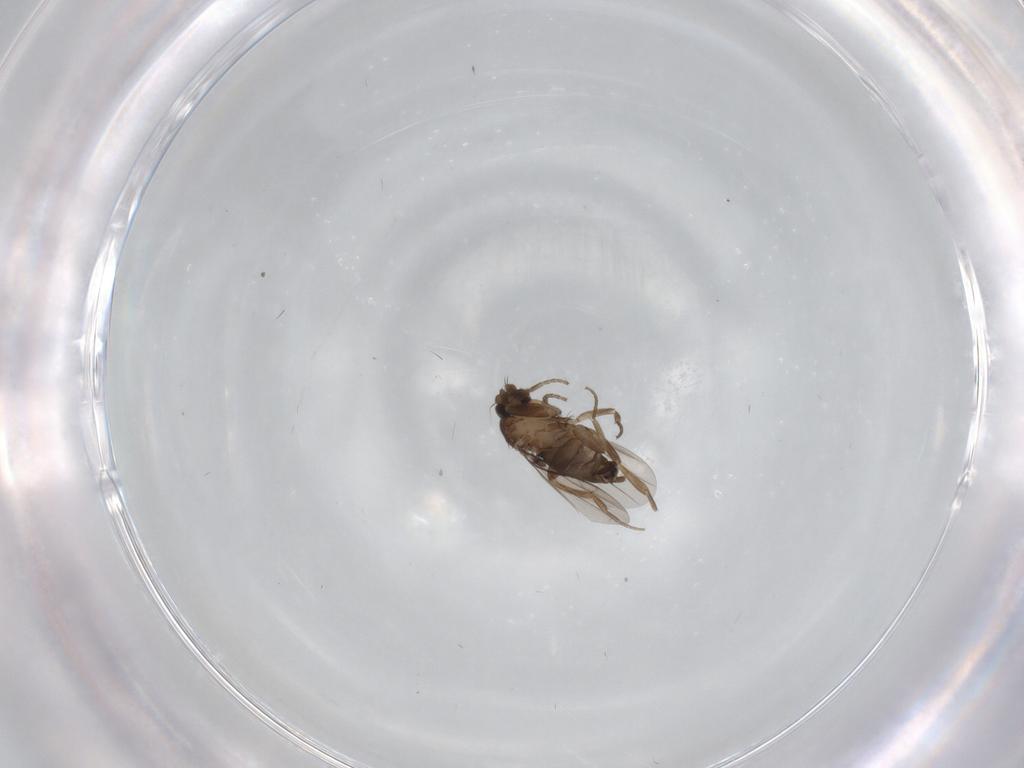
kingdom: Animalia
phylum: Arthropoda
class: Insecta
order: Diptera
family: Phoridae
